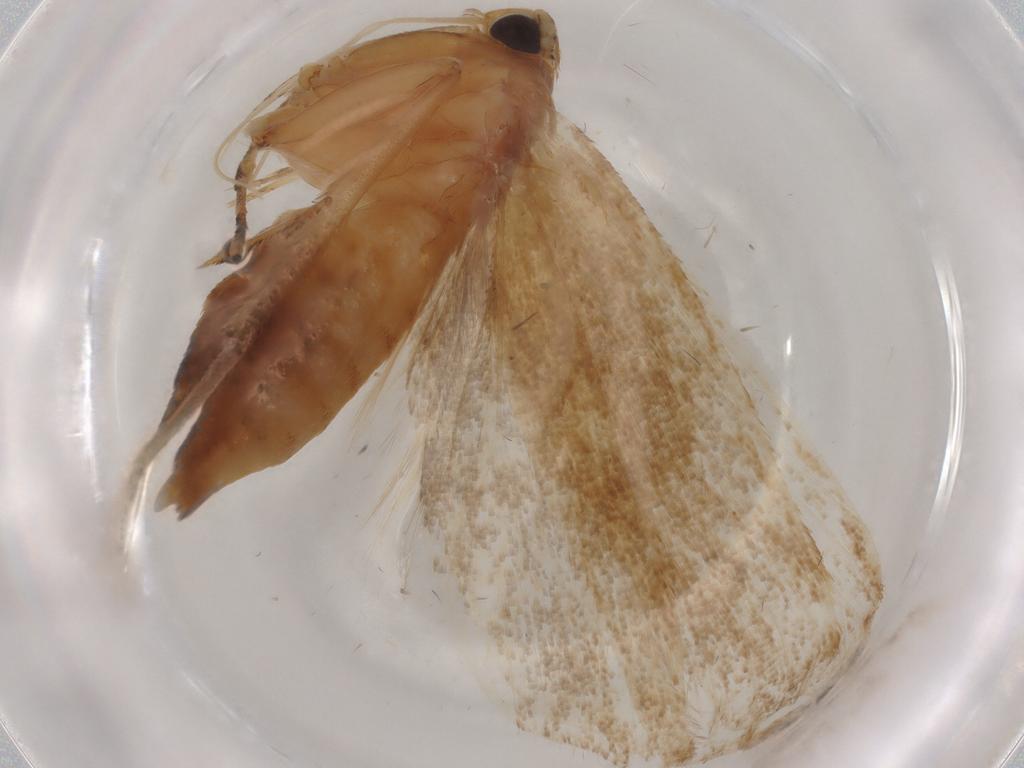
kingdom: Animalia
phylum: Arthropoda
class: Insecta
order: Lepidoptera
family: Lecithoceridae
